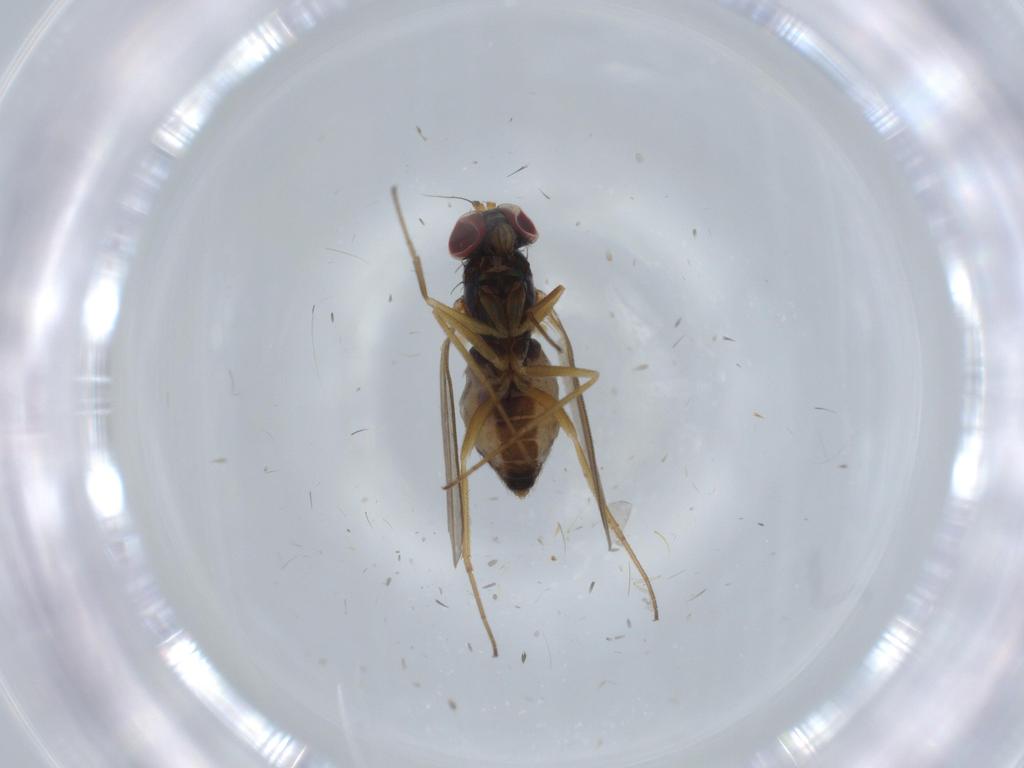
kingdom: Animalia
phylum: Arthropoda
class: Insecta
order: Diptera
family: Dolichopodidae
